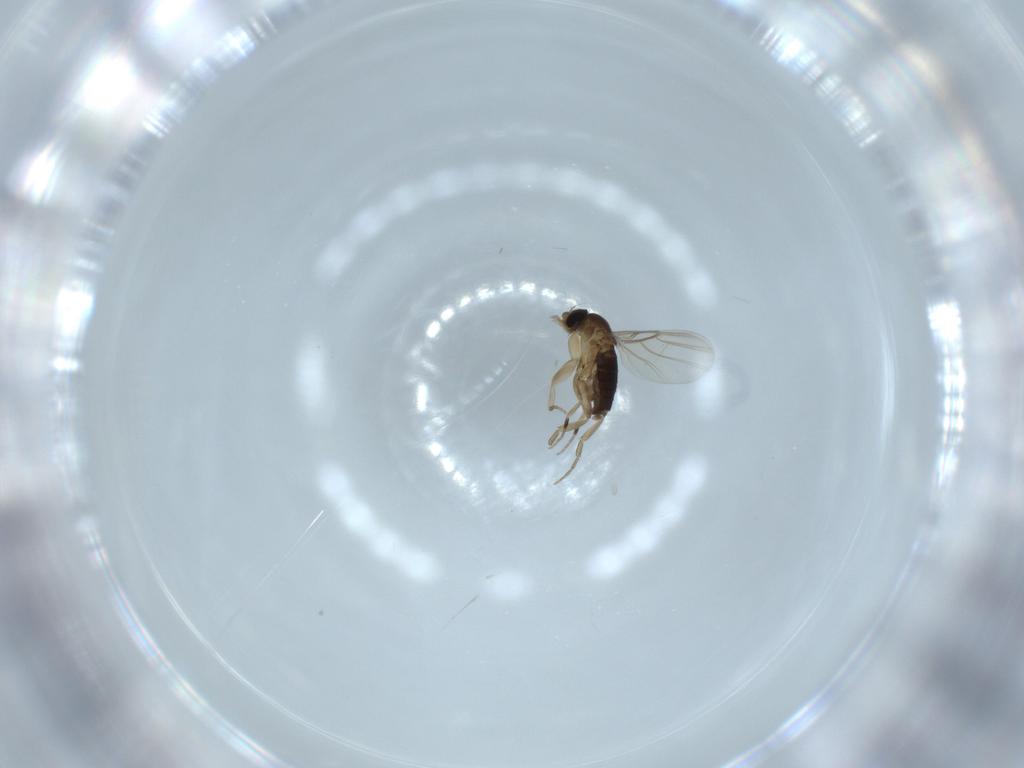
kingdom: Animalia
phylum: Arthropoda
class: Insecta
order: Diptera
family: Phoridae
